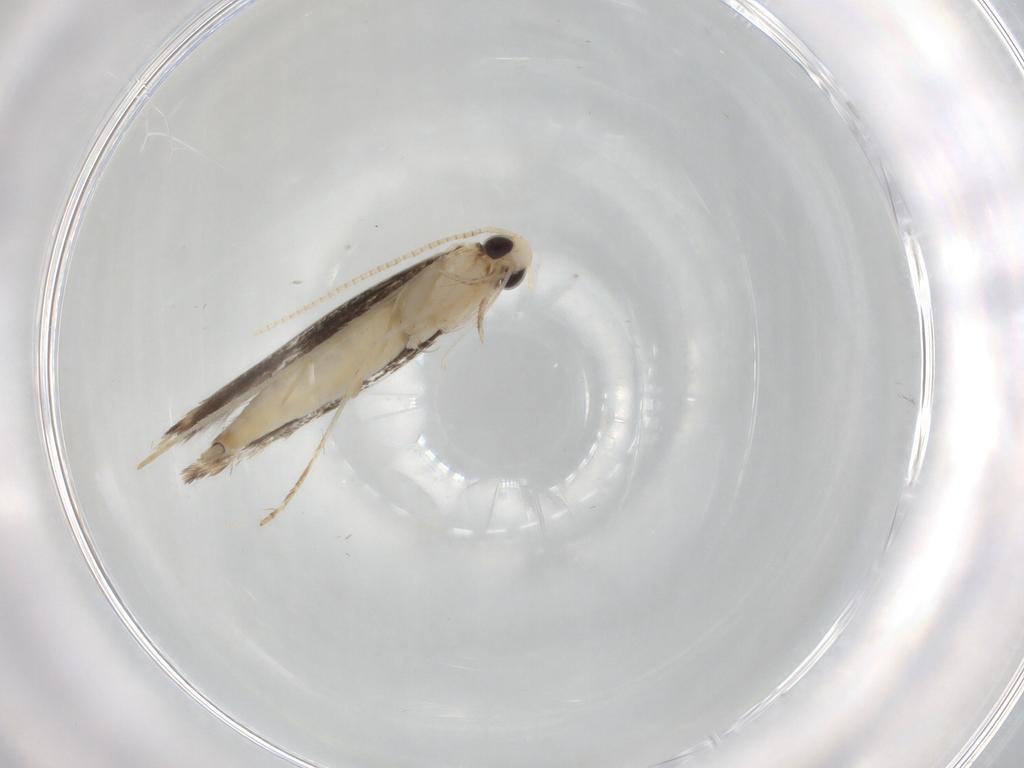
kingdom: Animalia
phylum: Arthropoda
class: Insecta
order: Lepidoptera
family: Gracillariidae
